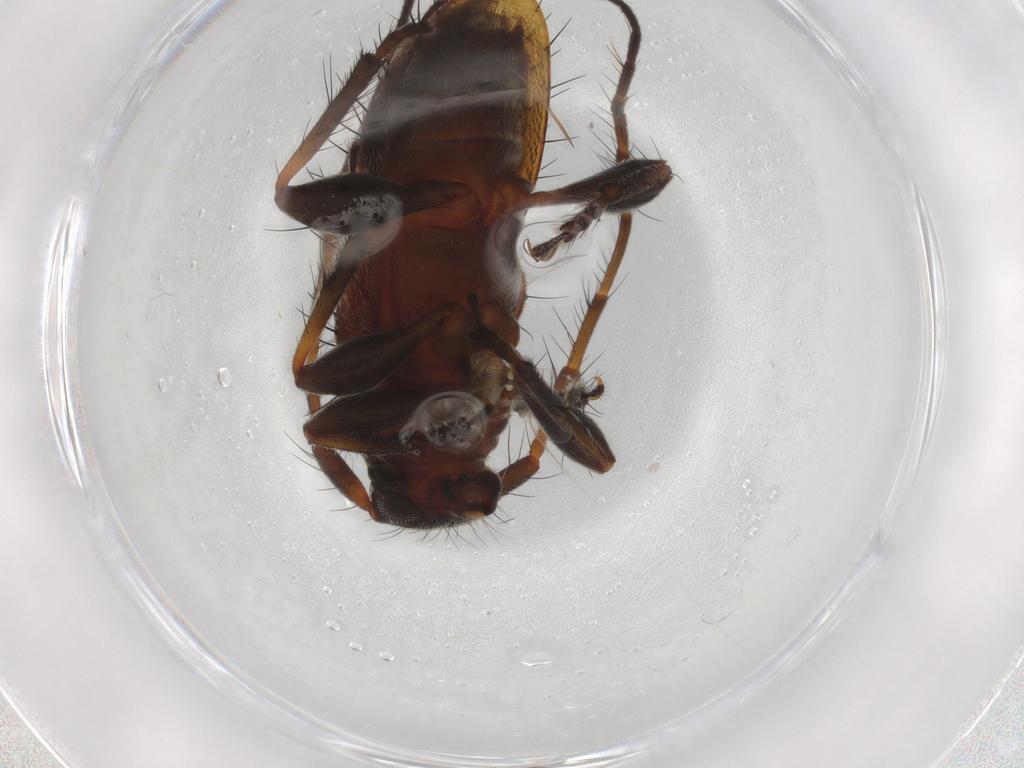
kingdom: Animalia
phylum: Arthropoda
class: Insecta
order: Coleoptera
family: Cerambycidae
